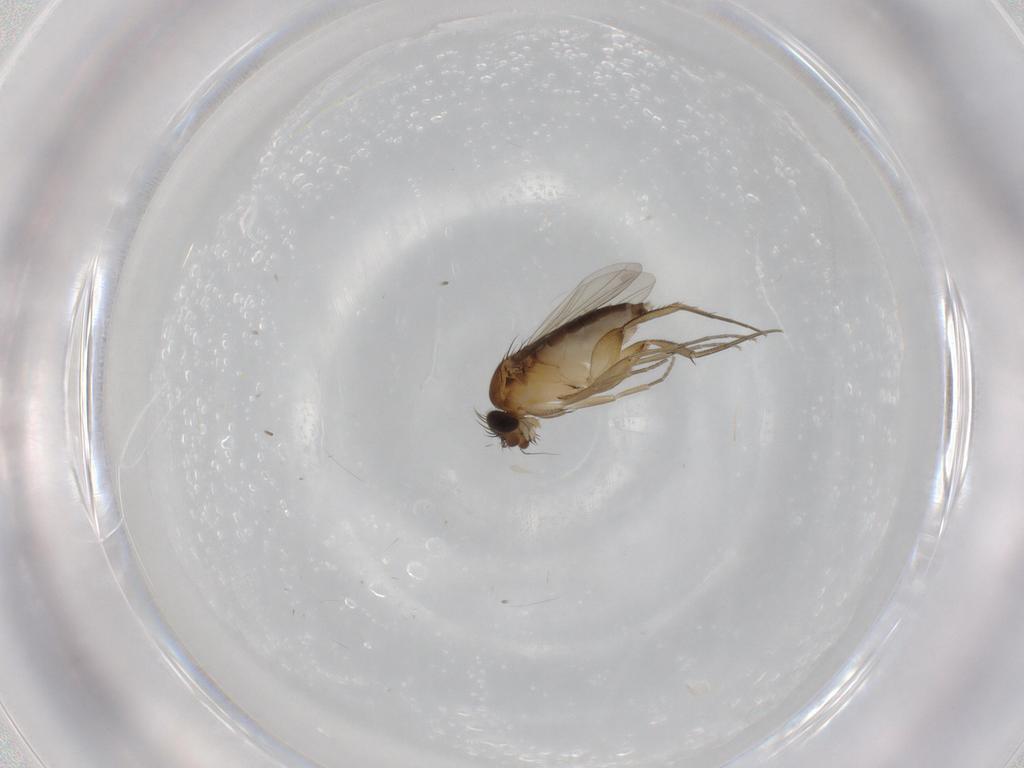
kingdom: Animalia
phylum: Arthropoda
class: Insecta
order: Diptera
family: Phoridae
